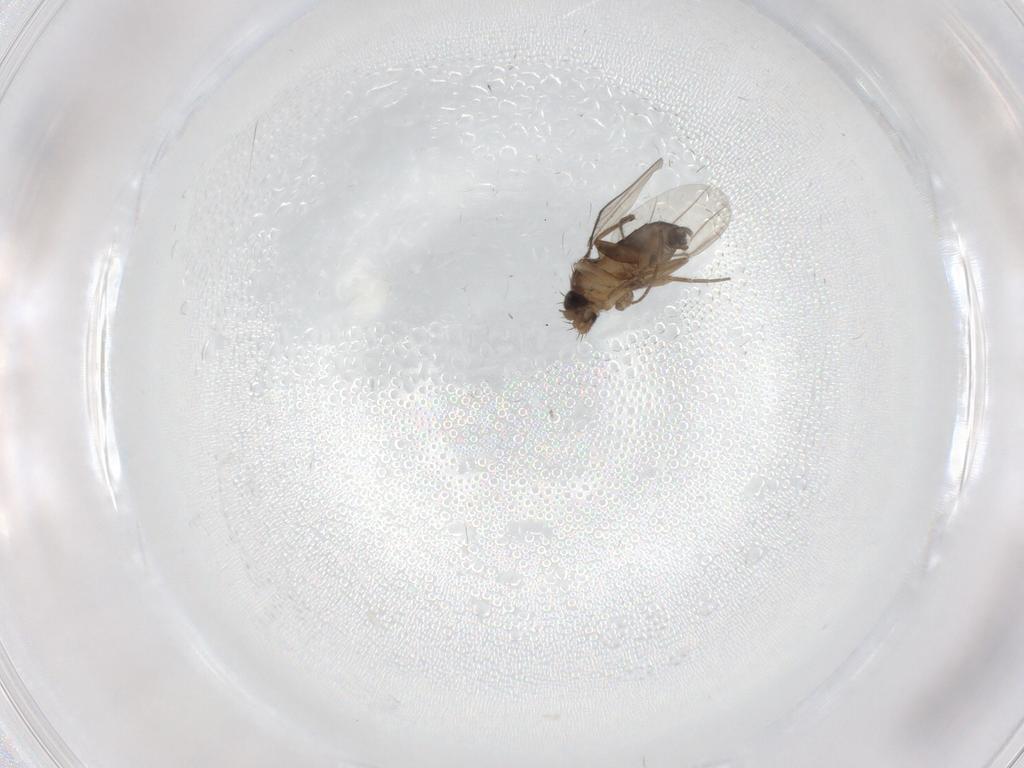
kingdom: Animalia
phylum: Arthropoda
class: Insecta
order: Diptera
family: Phoridae
